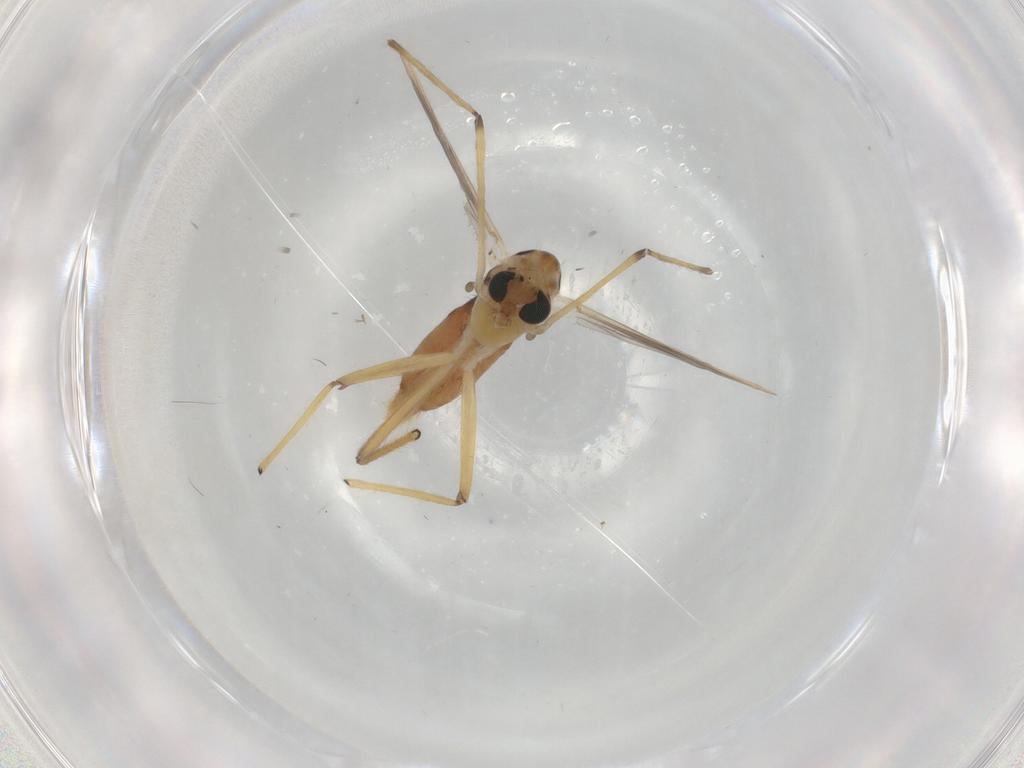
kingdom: Animalia
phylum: Arthropoda
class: Insecta
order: Diptera
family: Chironomidae
